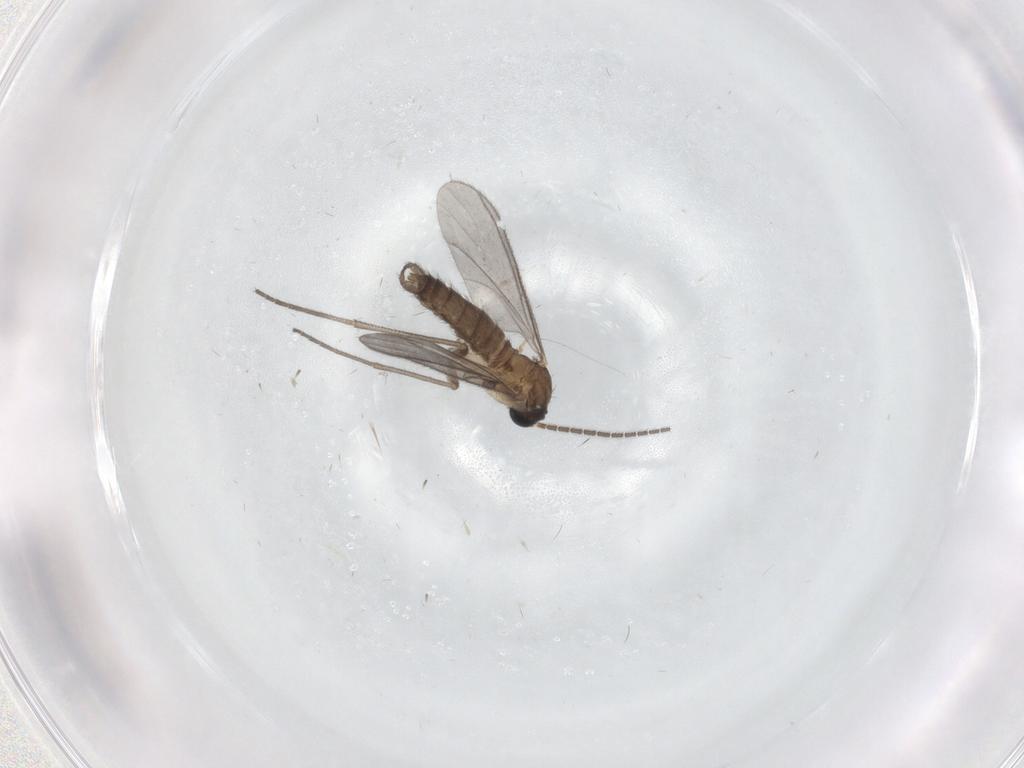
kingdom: Animalia
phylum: Arthropoda
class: Insecta
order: Diptera
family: Sciaridae
